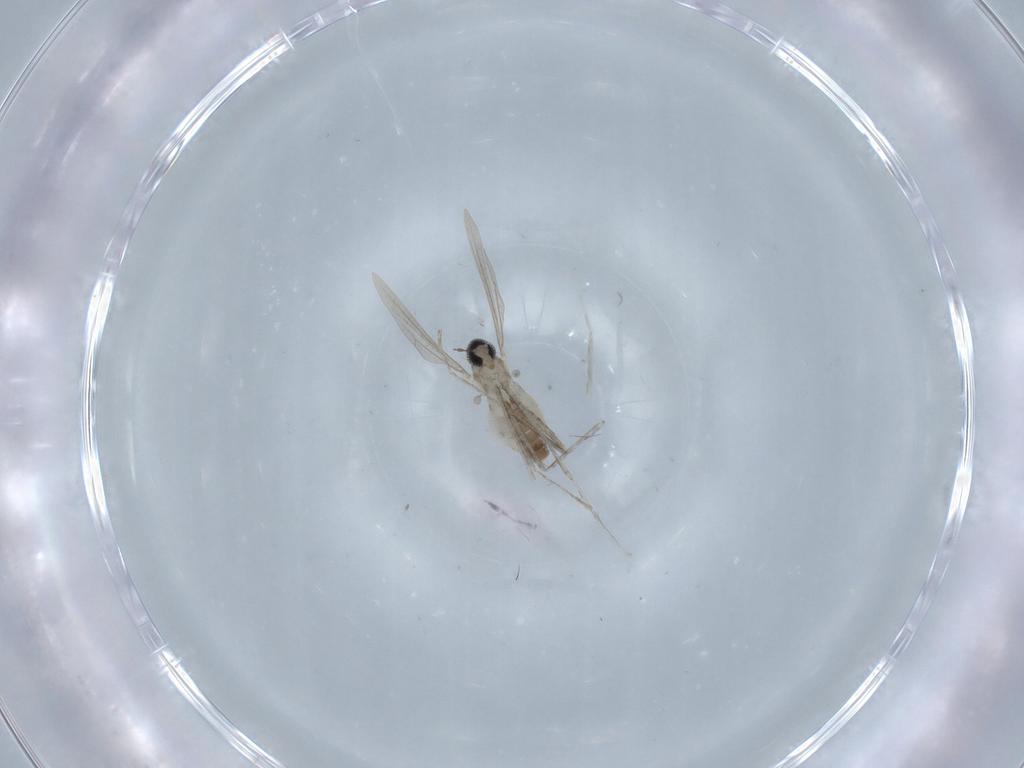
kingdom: Animalia
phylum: Arthropoda
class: Insecta
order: Diptera
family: Cecidomyiidae
